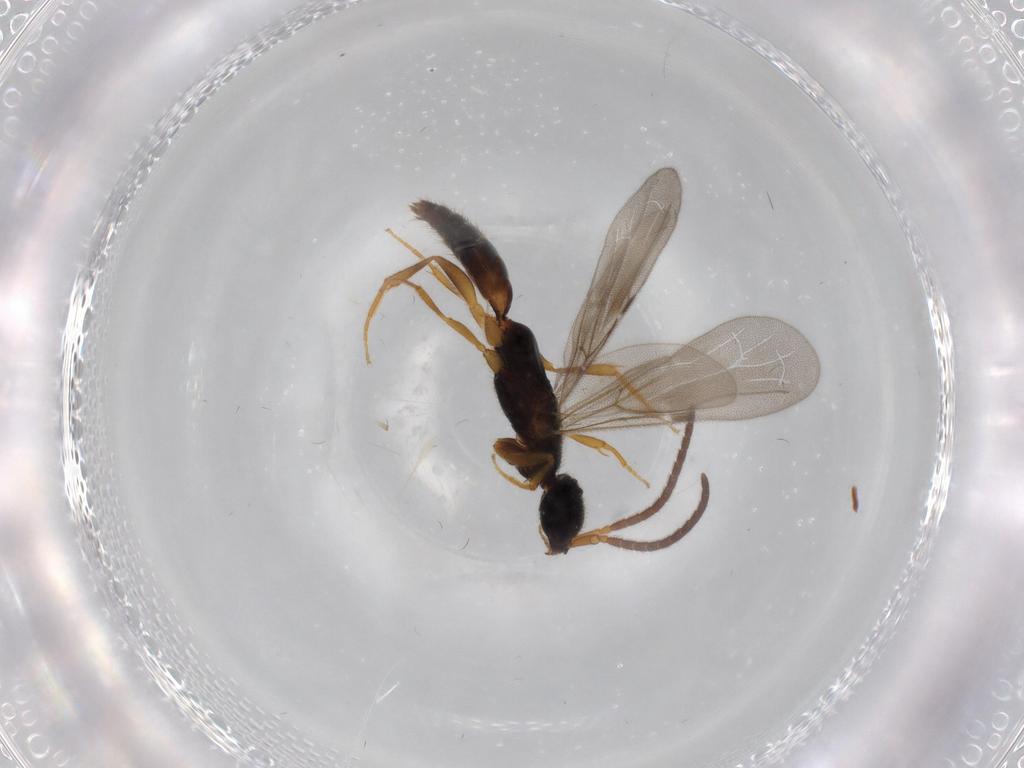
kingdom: Animalia
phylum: Arthropoda
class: Insecta
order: Hymenoptera
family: Bethylidae
